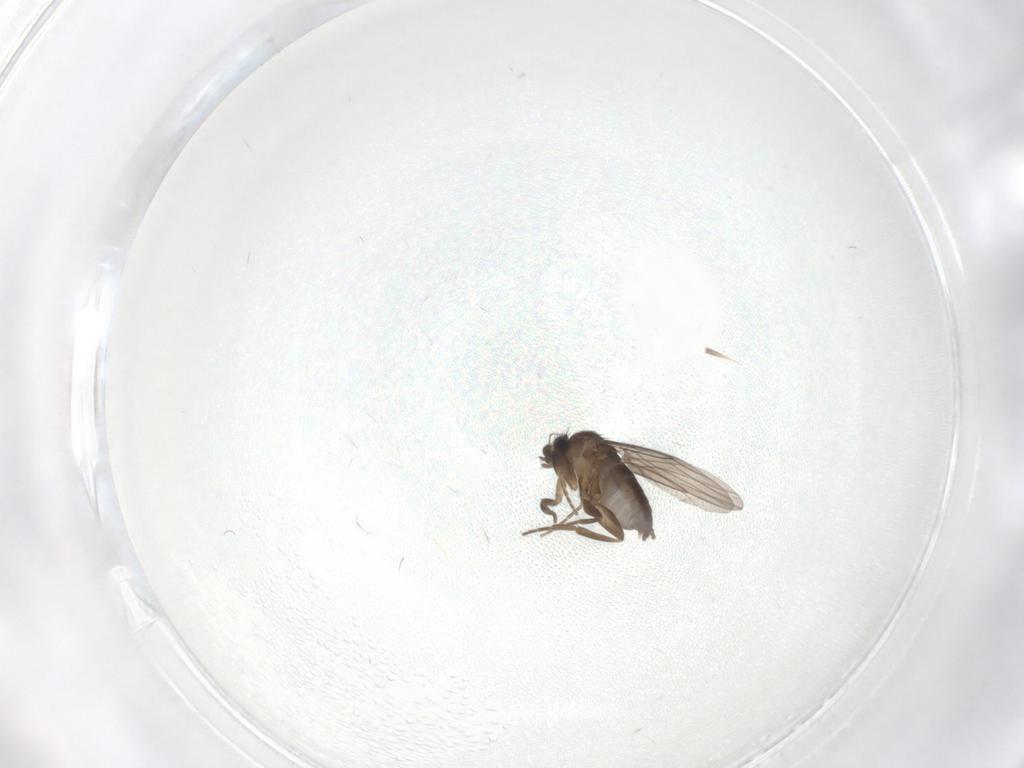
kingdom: Animalia
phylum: Arthropoda
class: Insecta
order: Diptera
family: Phoridae
